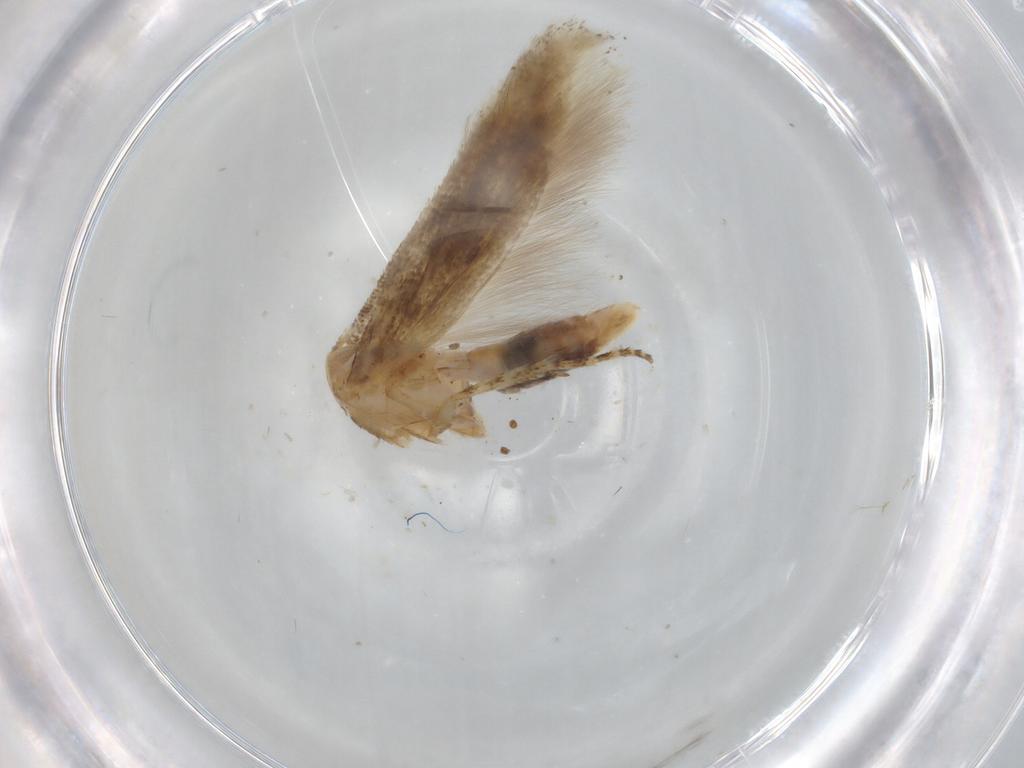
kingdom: Animalia
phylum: Arthropoda
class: Insecta
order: Lepidoptera
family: Gelechiidae
